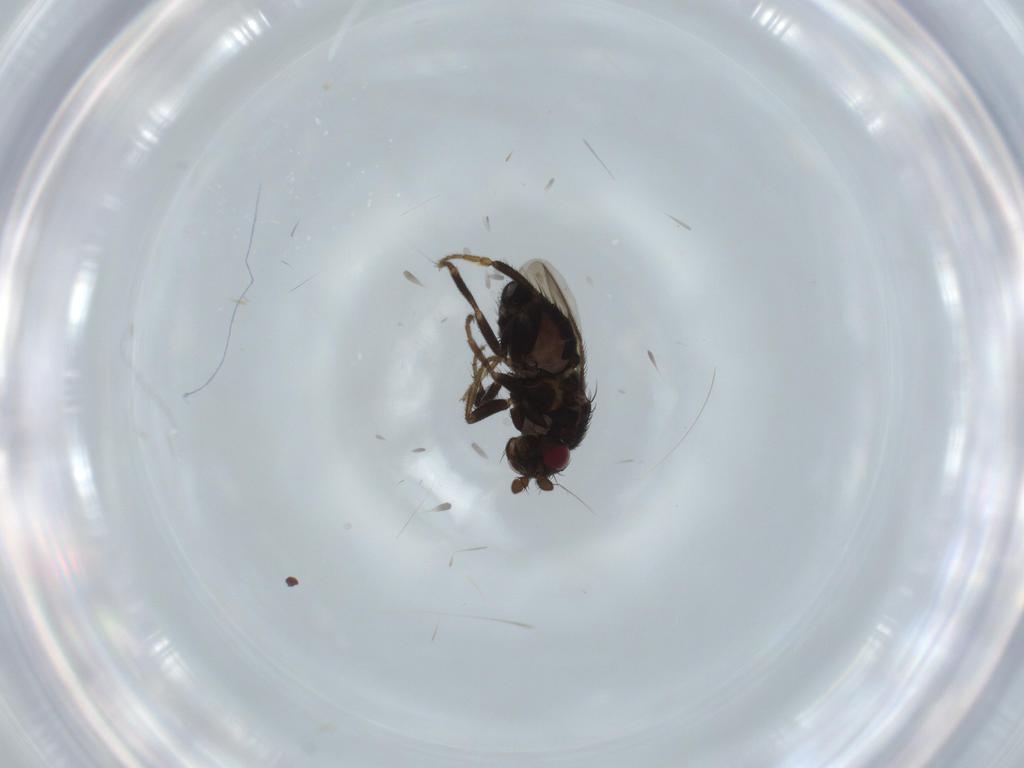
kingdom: Animalia
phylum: Arthropoda
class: Insecta
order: Diptera
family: Sphaeroceridae
